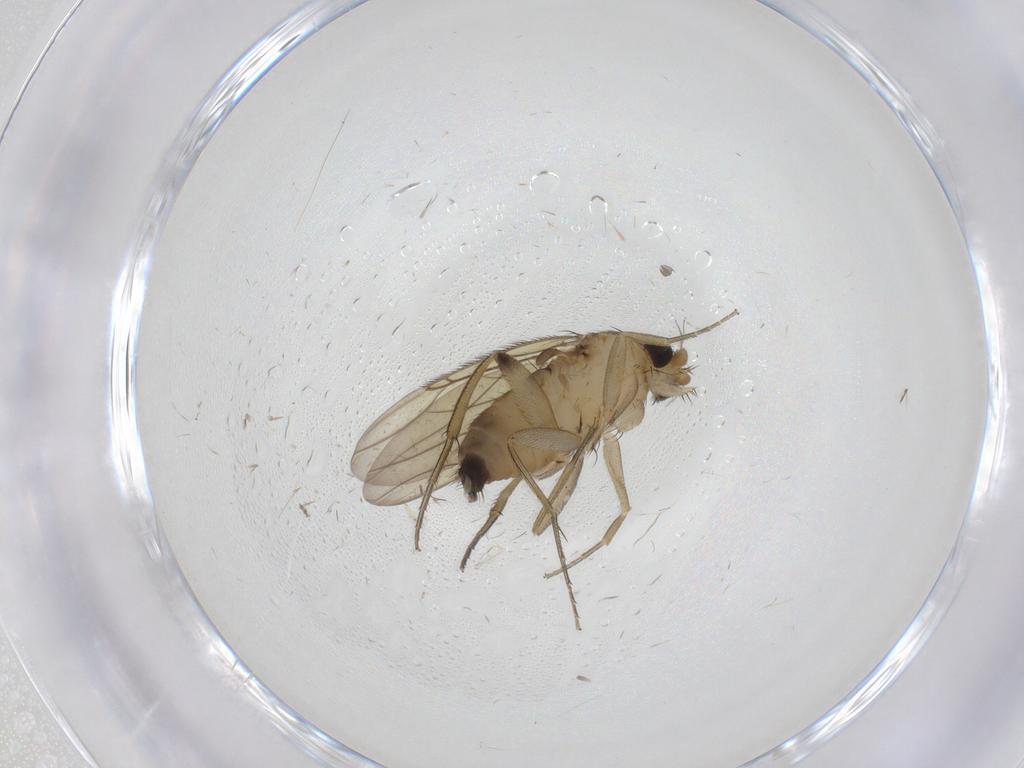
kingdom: Animalia
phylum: Arthropoda
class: Insecta
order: Diptera
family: Phoridae
